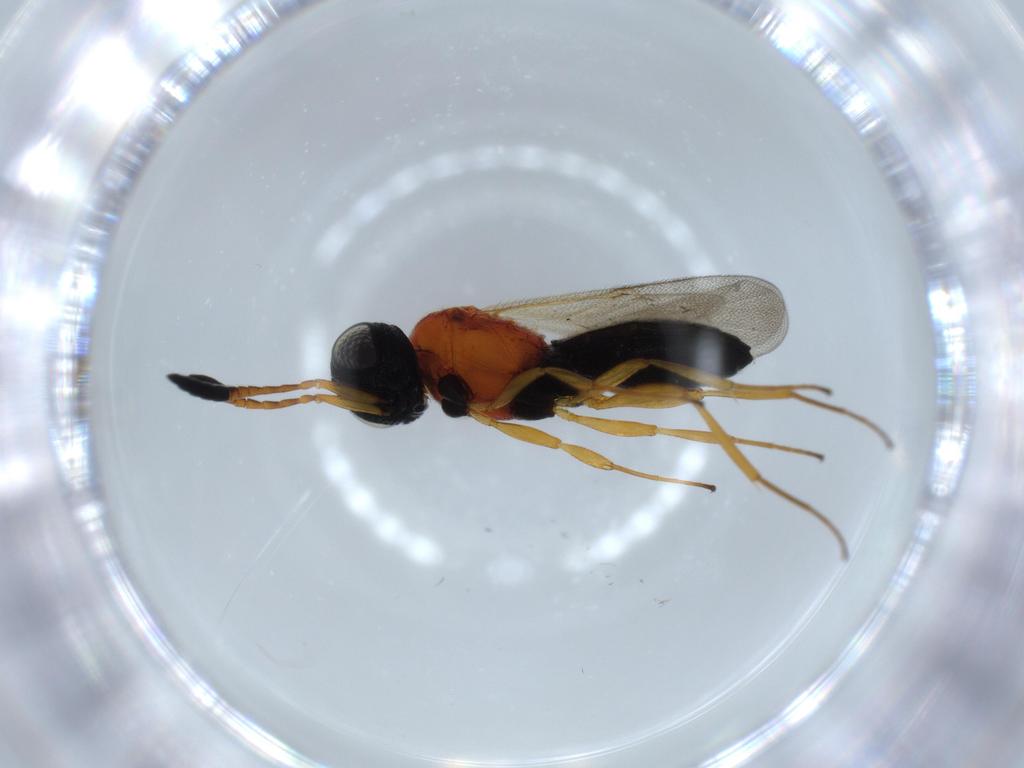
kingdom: Animalia
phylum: Arthropoda
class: Insecta
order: Hymenoptera
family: Scelionidae
